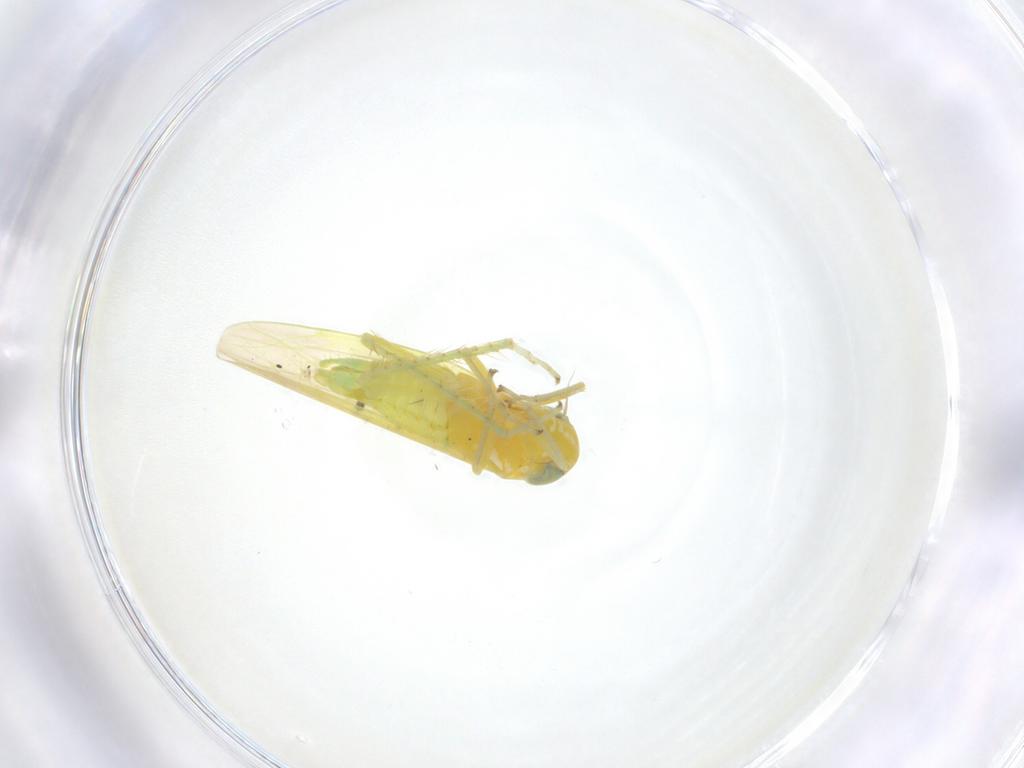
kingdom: Animalia
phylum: Arthropoda
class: Insecta
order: Hemiptera
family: Cicadellidae
